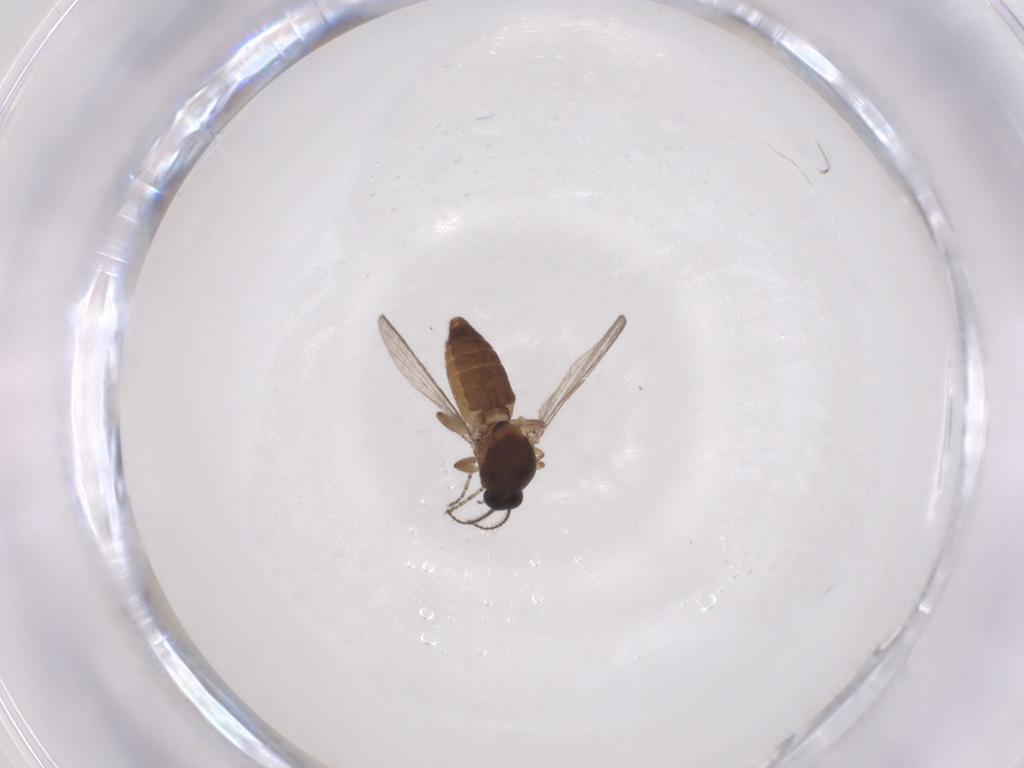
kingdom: Animalia
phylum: Arthropoda
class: Insecta
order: Diptera
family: Ceratopogonidae
